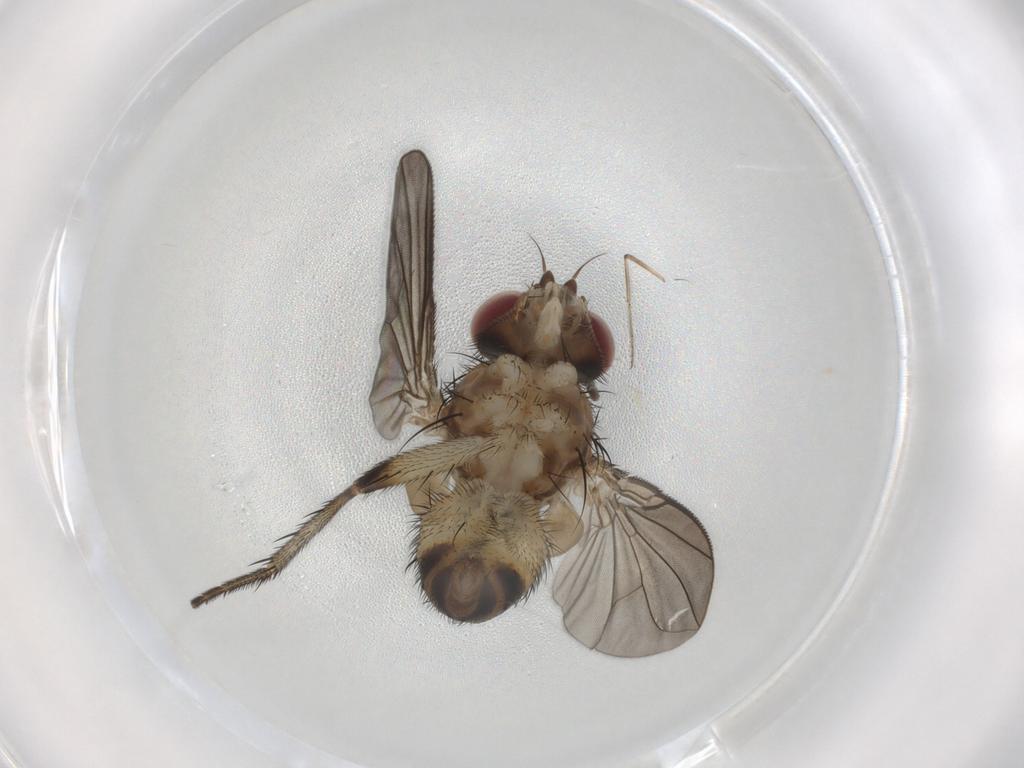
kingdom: Animalia
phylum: Arthropoda
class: Insecta
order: Diptera
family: Tachinidae
